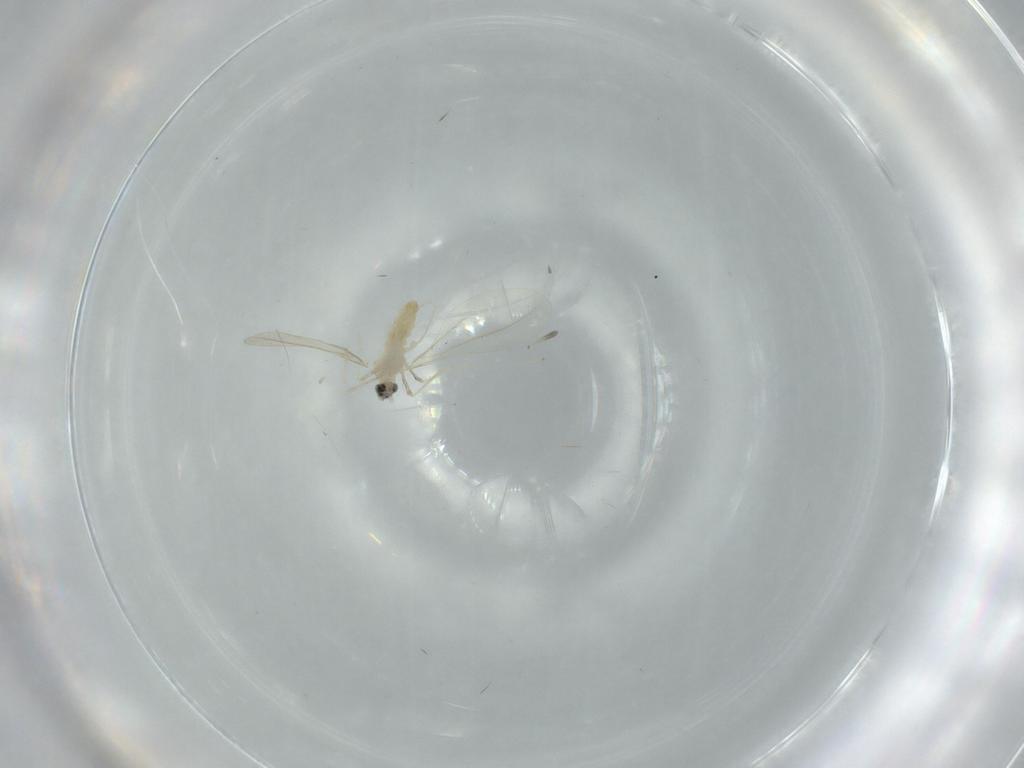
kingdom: Animalia
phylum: Arthropoda
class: Insecta
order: Diptera
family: Cecidomyiidae
